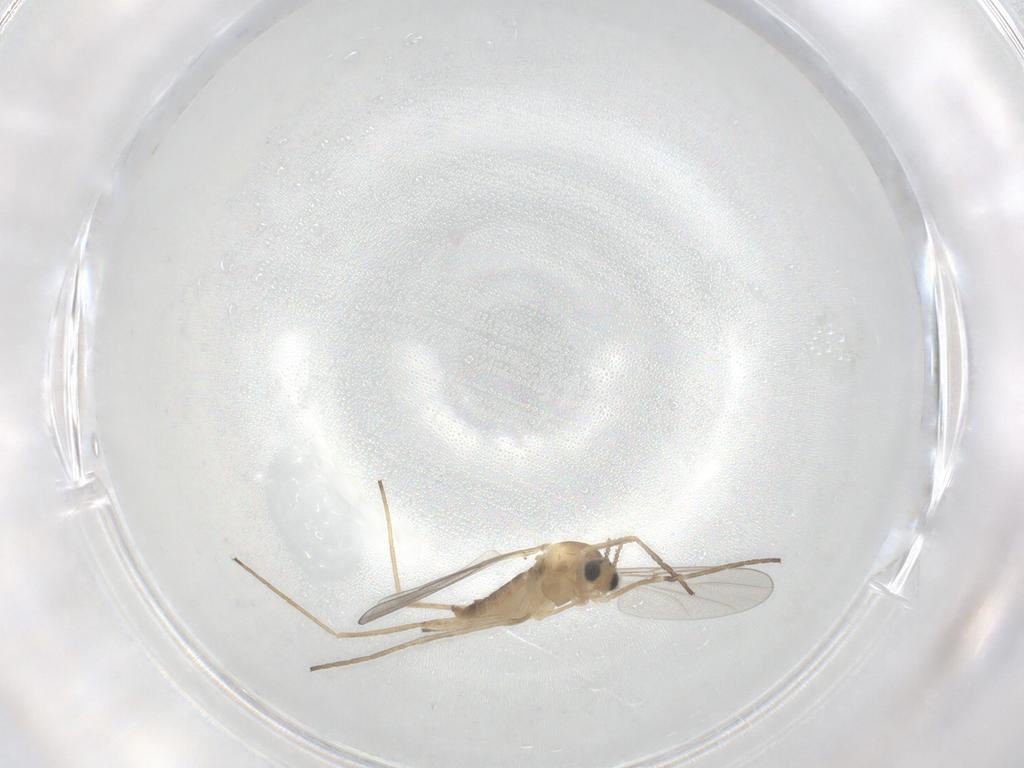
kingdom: Animalia
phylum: Arthropoda
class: Insecta
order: Diptera
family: Cecidomyiidae
